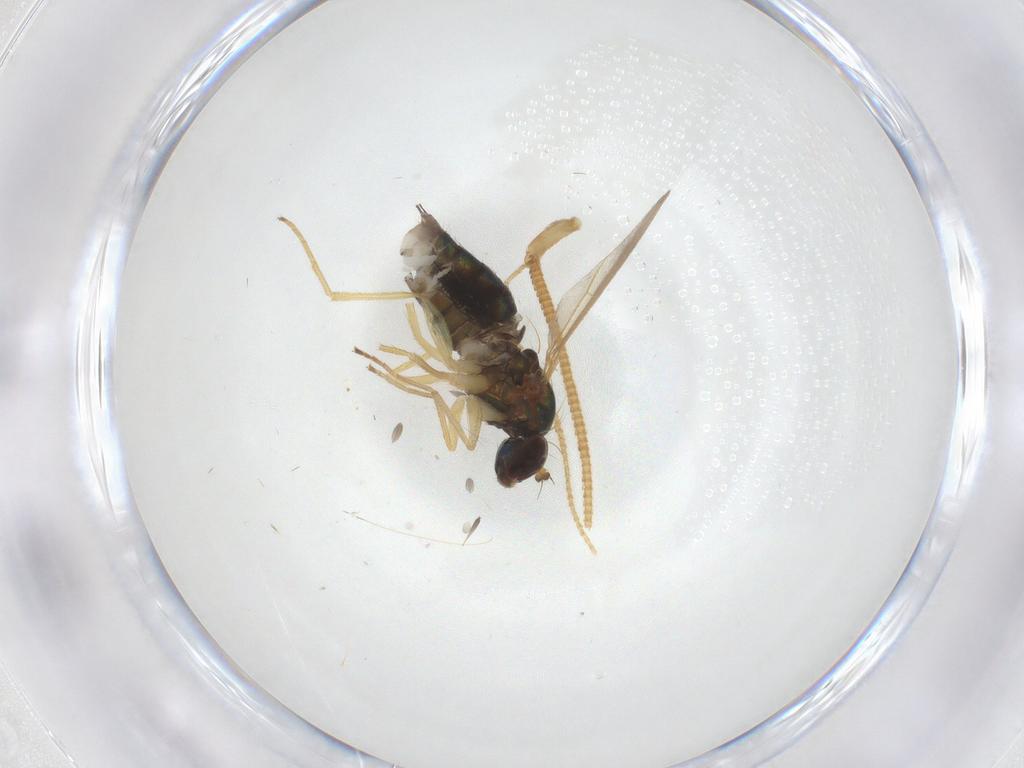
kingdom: Animalia
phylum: Arthropoda
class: Insecta
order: Diptera
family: Dolichopodidae
